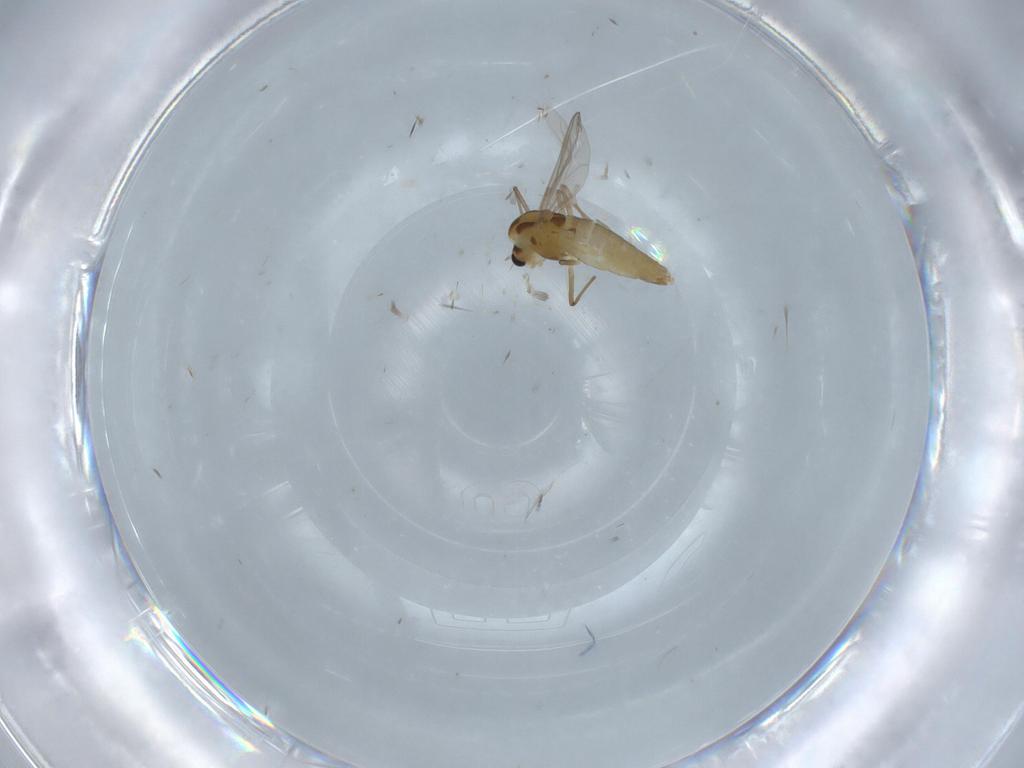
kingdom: Animalia
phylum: Arthropoda
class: Insecta
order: Diptera
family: Chironomidae
